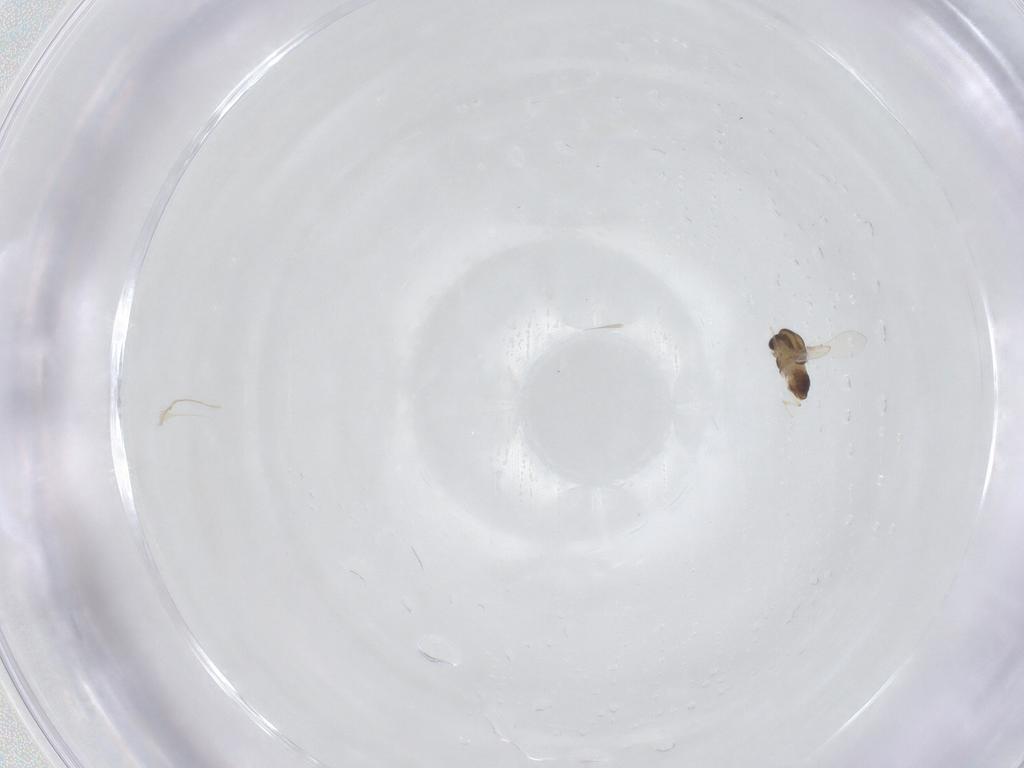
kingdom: Animalia
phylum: Arthropoda
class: Insecta
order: Diptera
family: Chironomidae
